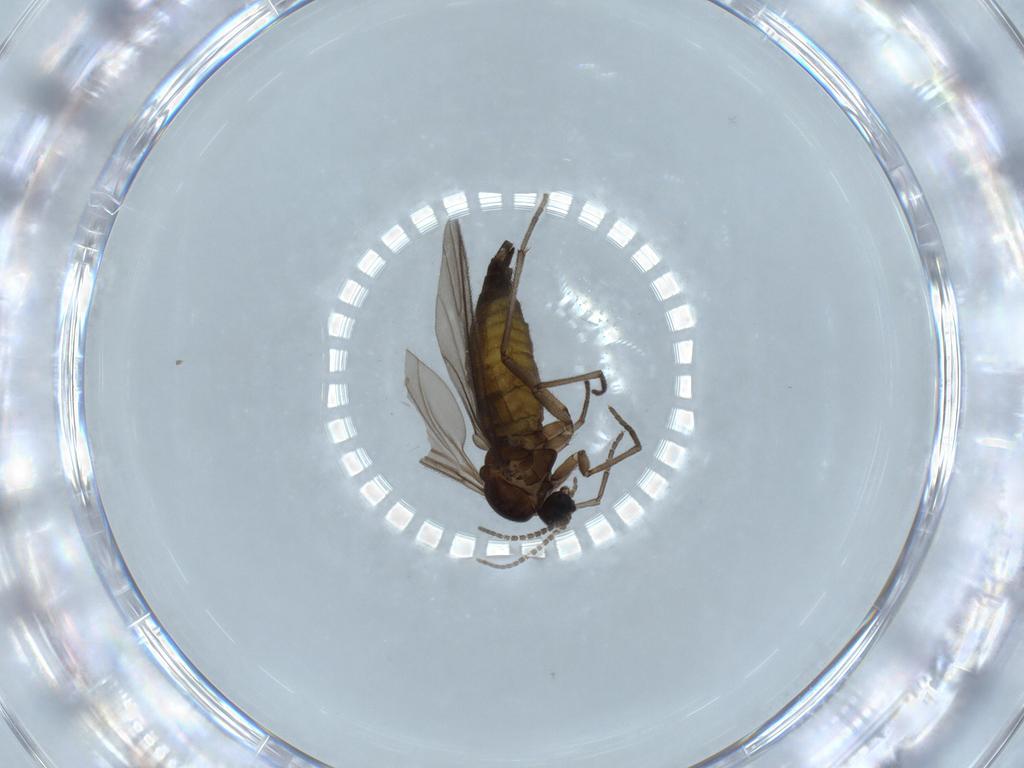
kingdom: Animalia
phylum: Arthropoda
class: Insecta
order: Diptera
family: Sciaridae
